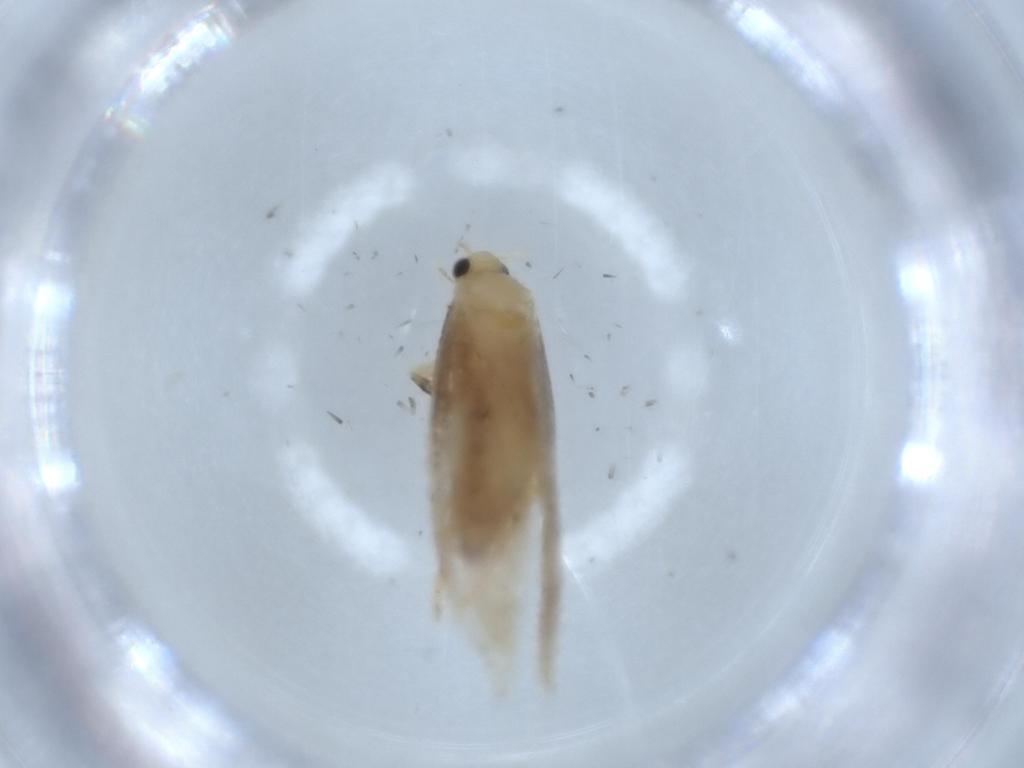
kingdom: Animalia
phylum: Arthropoda
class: Insecta
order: Lepidoptera
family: Dryadaulidae
